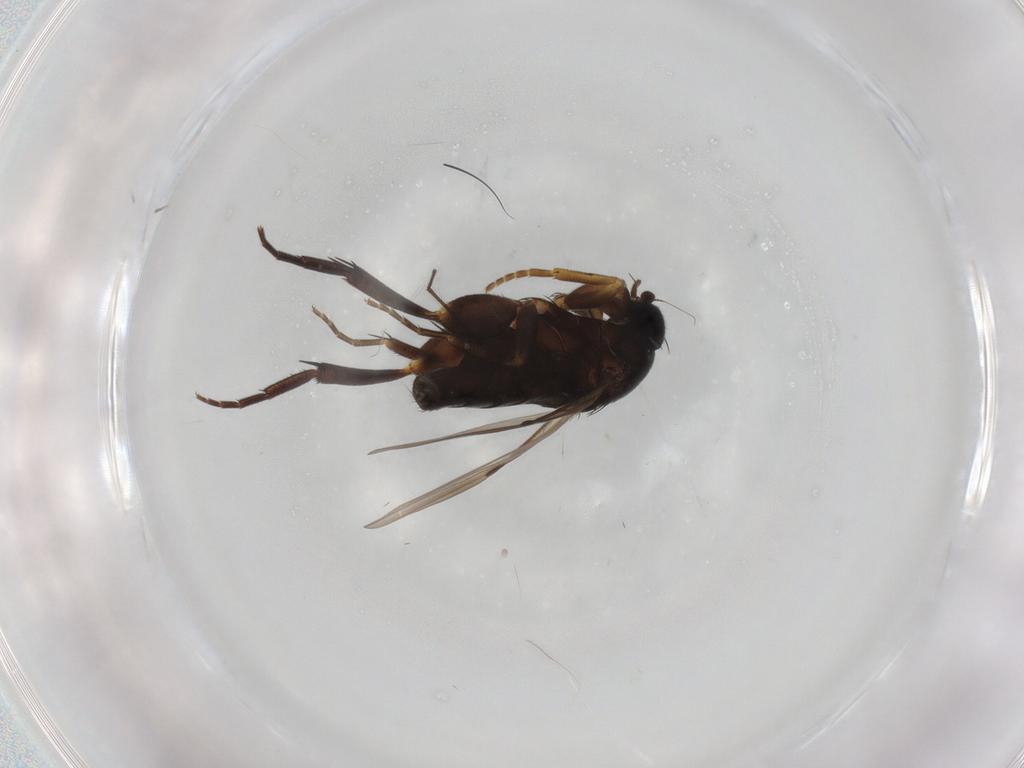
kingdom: Animalia
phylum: Arthropoda
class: Insecta
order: Diptera
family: Phoridae
